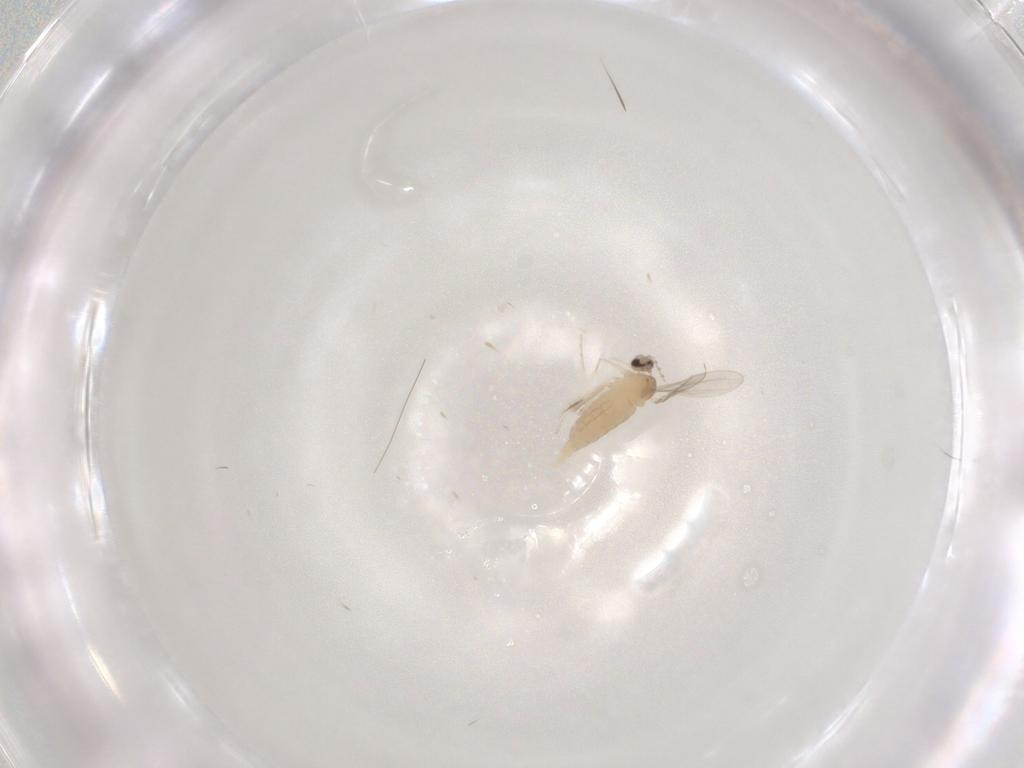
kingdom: Animalia
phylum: Arthropoda
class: Insecta
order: Diptera
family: Cecidomyiidae
